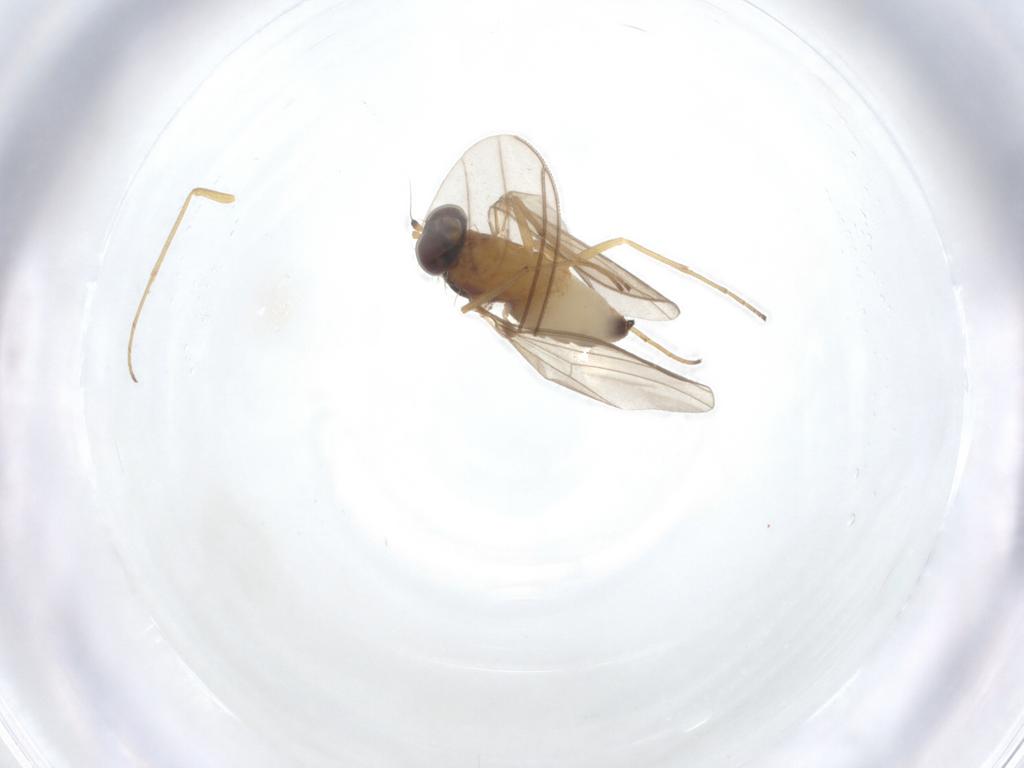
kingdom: Animalia
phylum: Arthropoda
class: Insecta
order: Diptera
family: Dolichopodidae
